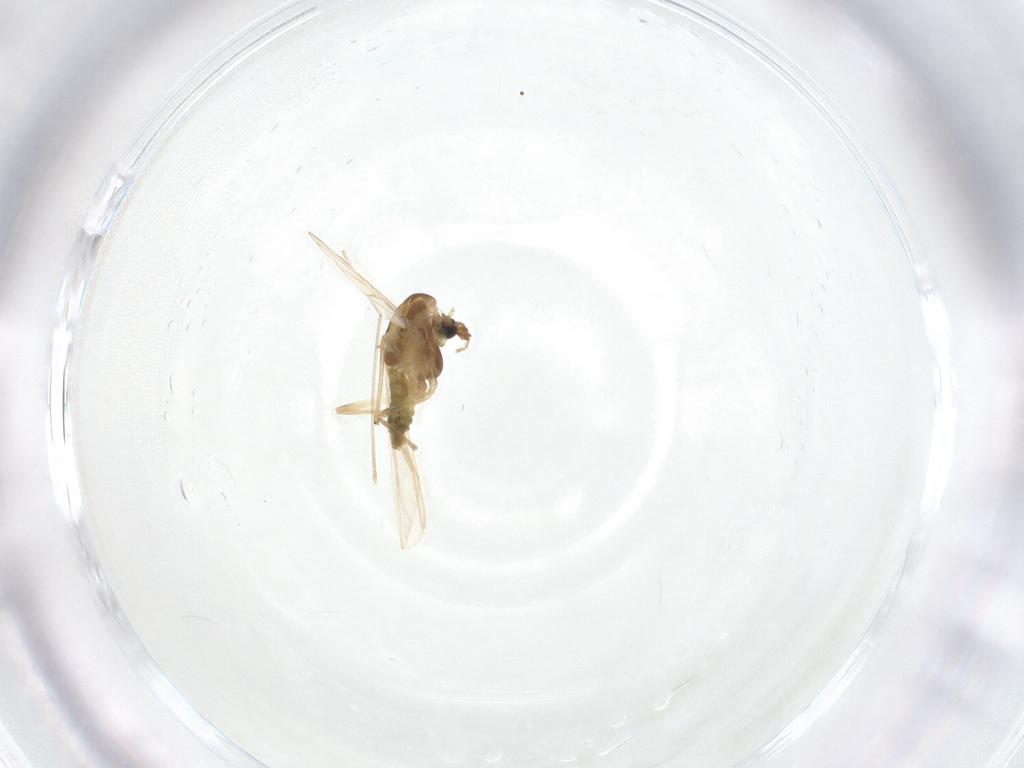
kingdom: Animalia
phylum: Arthropoda
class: Insecta
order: Diptera
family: Chironomidae
